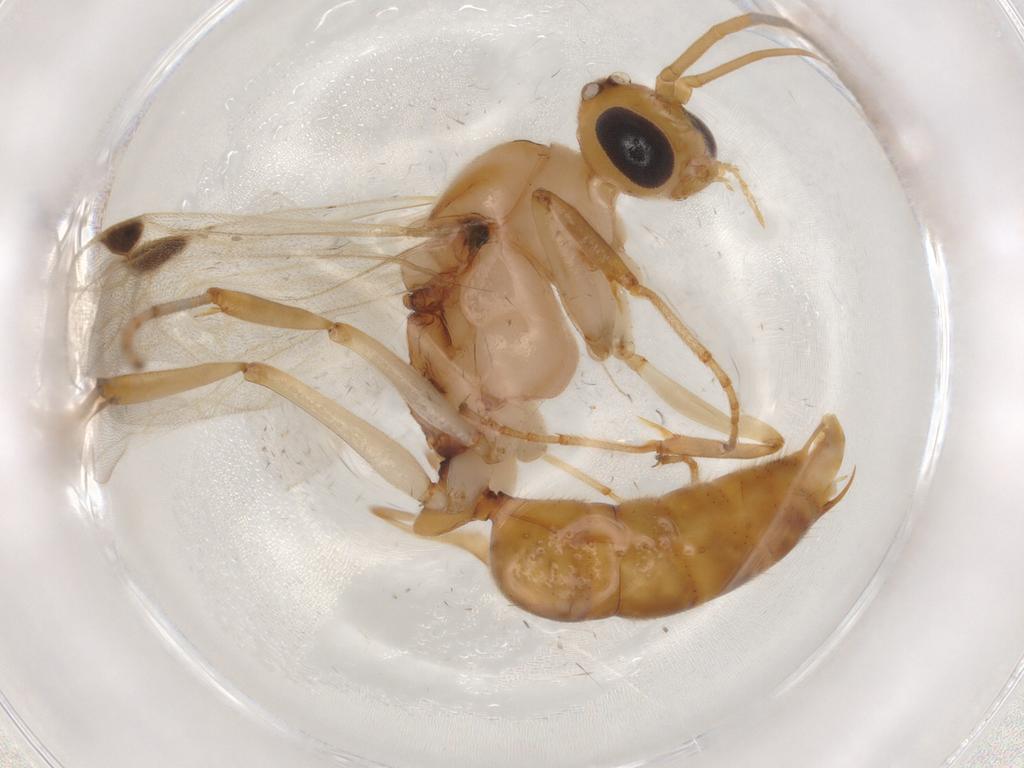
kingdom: Animalia
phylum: Arthropoda
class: Insecta
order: Hymenoptera
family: Formicidae
